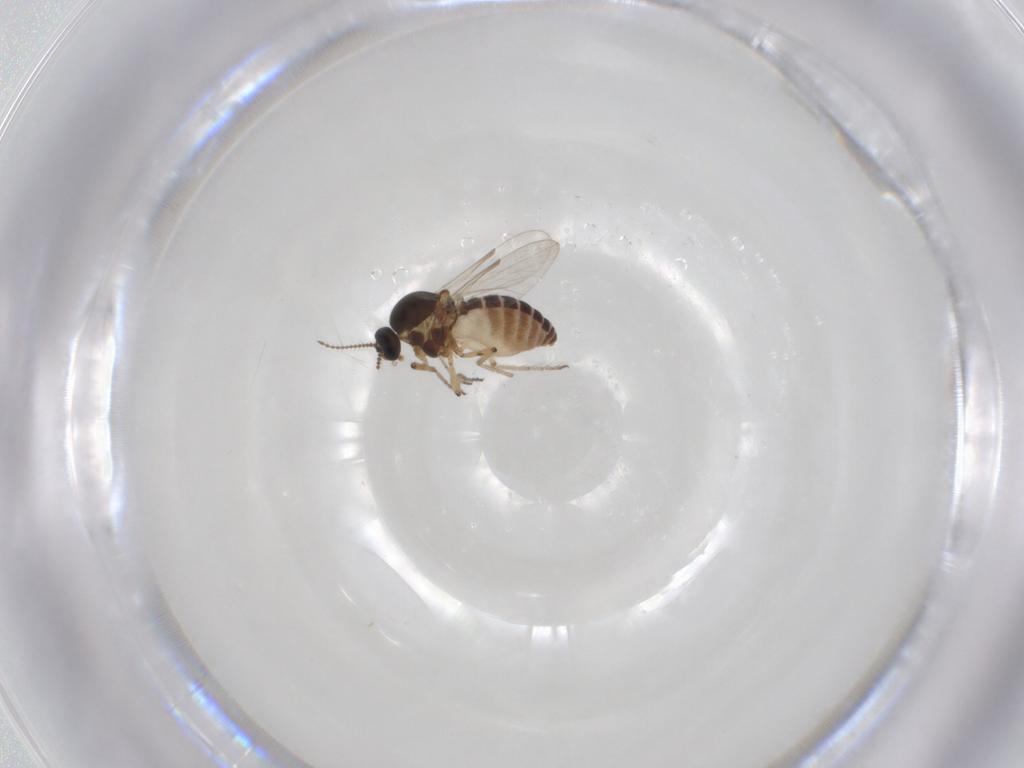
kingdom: Animalia
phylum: Arthropoda
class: Insecta
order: Diptera
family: Ceratopogonidae
